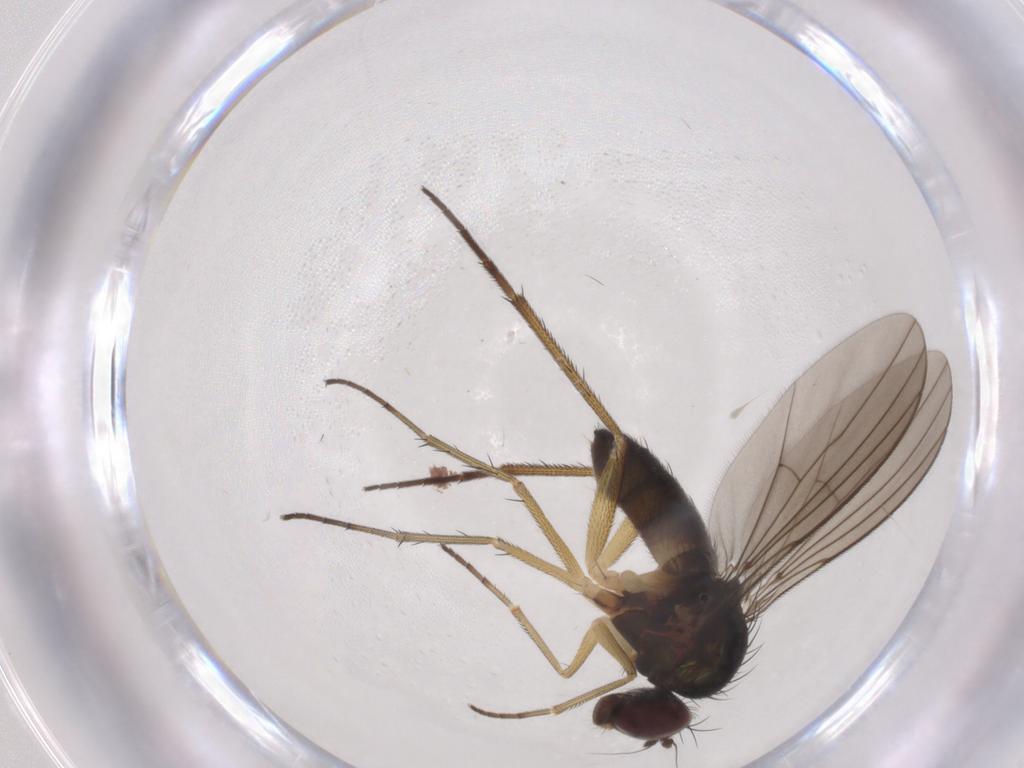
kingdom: Animalia
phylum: Arthropoda
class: Insecta
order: Diptera
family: Dolichopodidae
